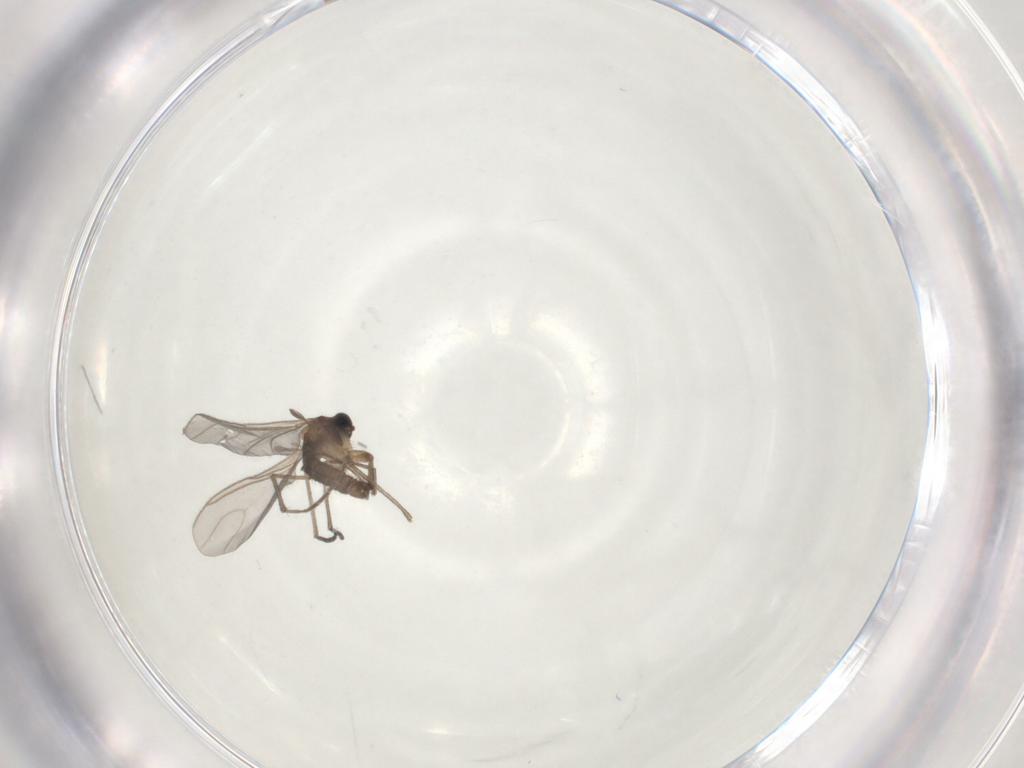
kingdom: Animalia
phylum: Arthropoda
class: Insecta
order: Diptera
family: Sciaridae
